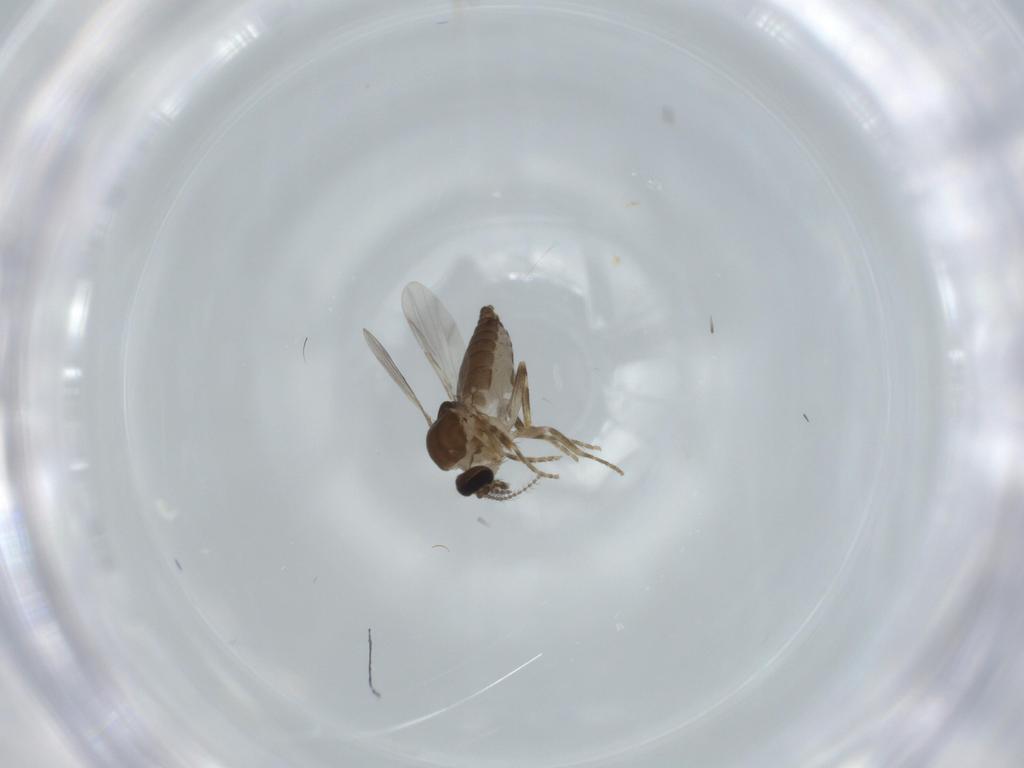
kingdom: Animalia
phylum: Arthropoda
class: Insecta
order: Diptera
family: Ceratopogonidae
